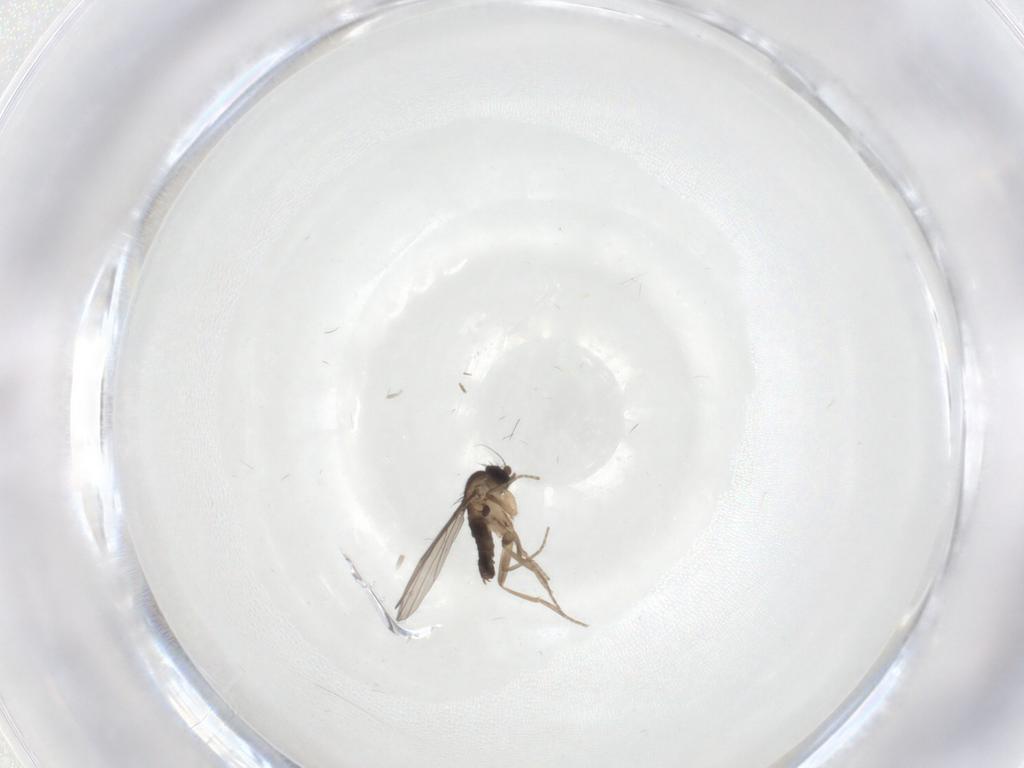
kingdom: Animalia
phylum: Arthropoda
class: Insecta
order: Diptera
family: Phoridae
